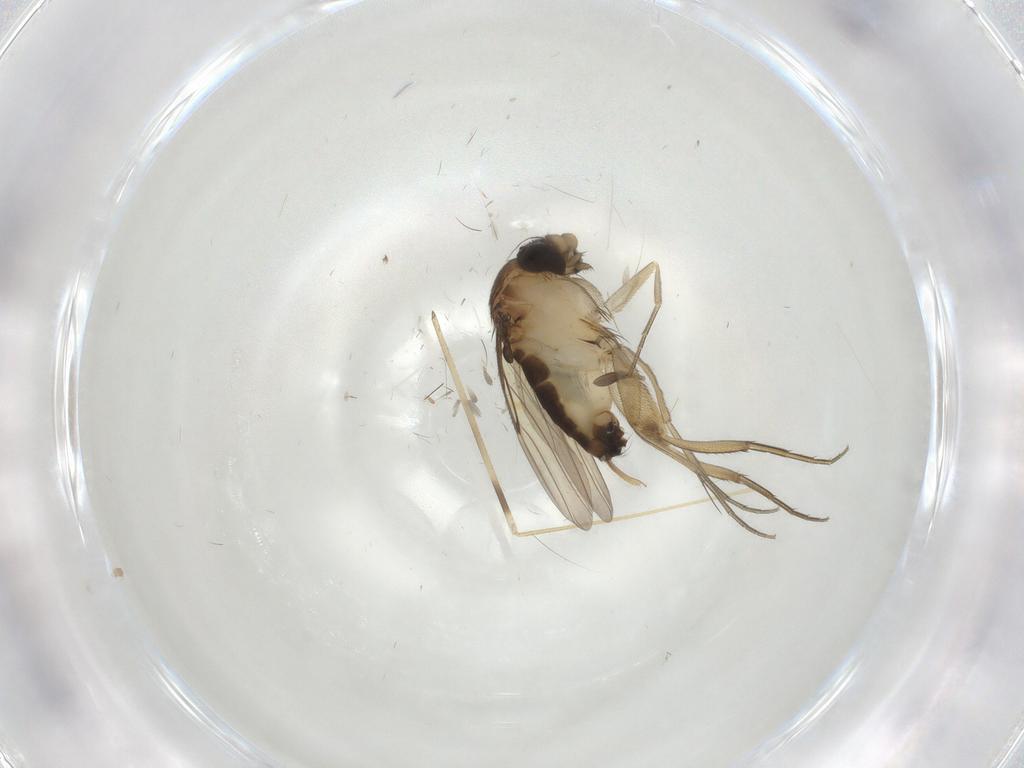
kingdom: Animalia
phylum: Arthropoda
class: Insecta
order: Diptera
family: Phoridae
